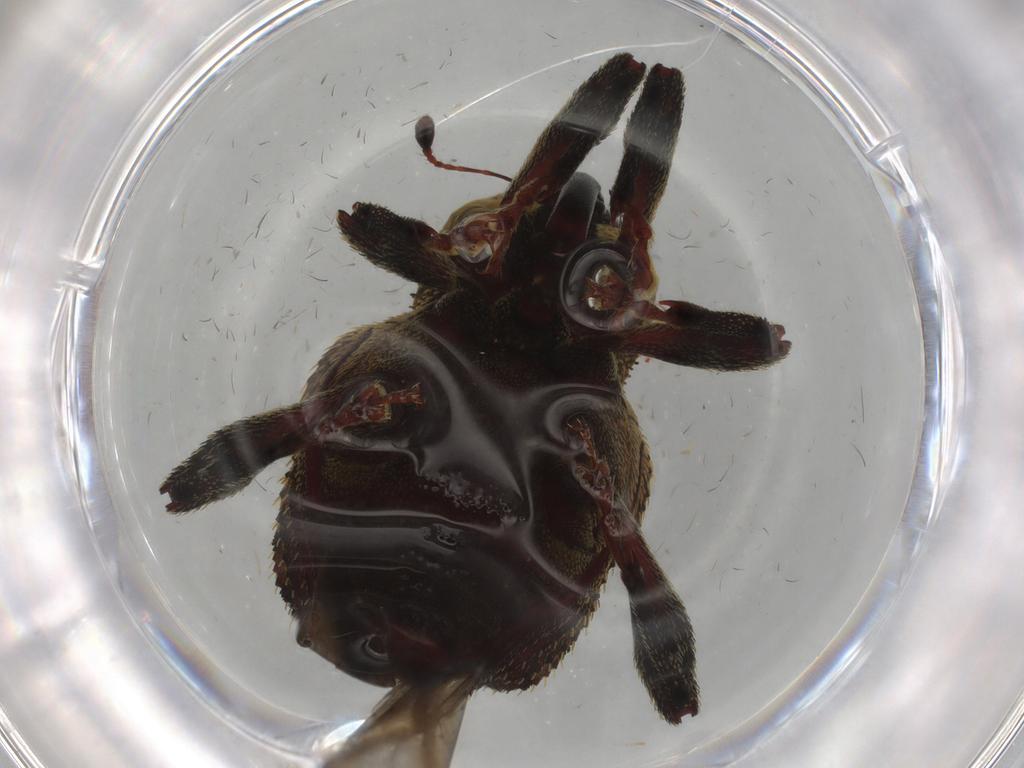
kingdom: Animalia
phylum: Arthropoda
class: Insecta
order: Coleoptera
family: Curculionidae
